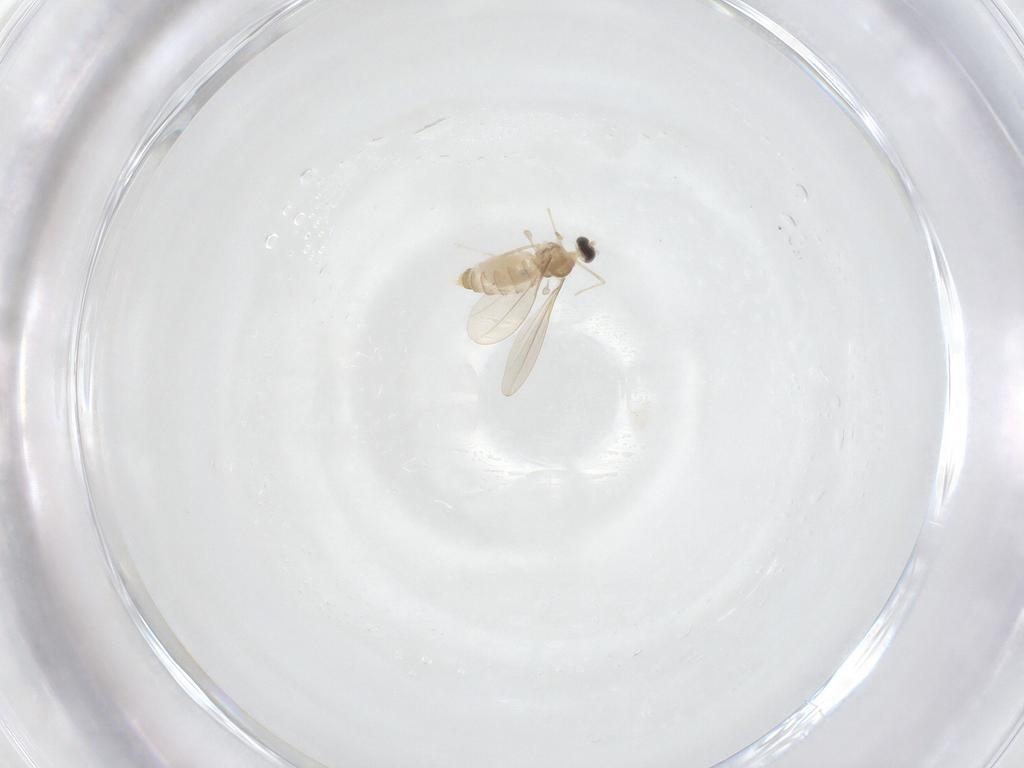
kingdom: Animalia
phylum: Arthropoda
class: Insecta
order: Diptera
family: Cecidomyiidae
